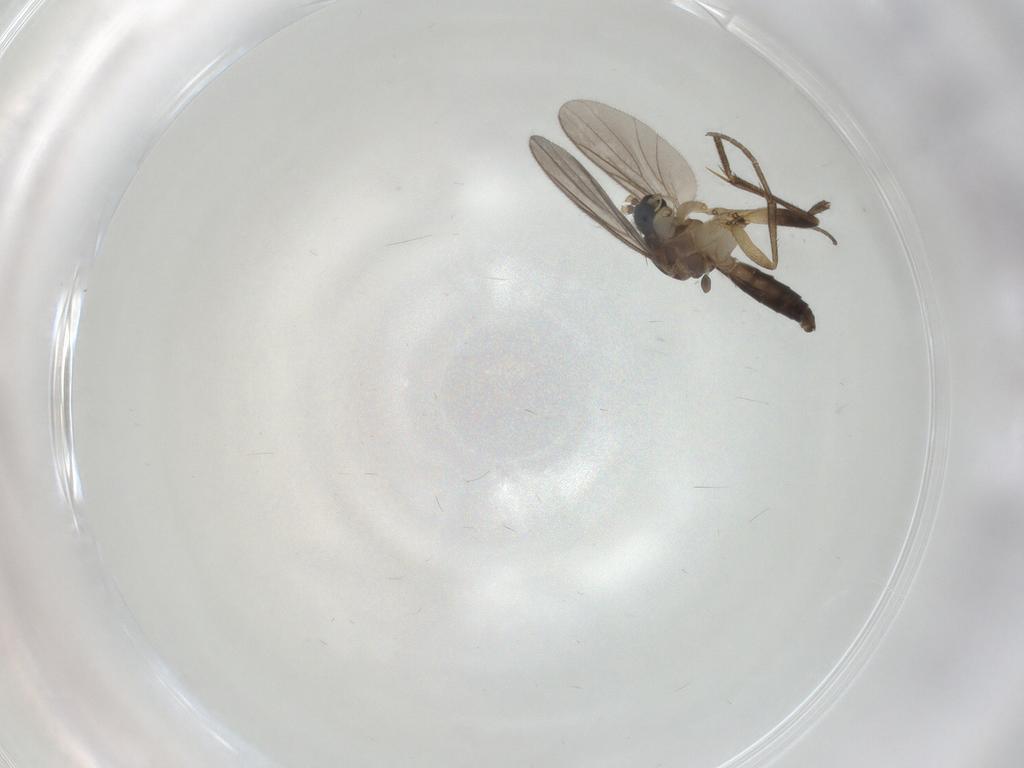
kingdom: Animalia
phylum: Arthropoda
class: Insecta
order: Diptera
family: Mycetophilidae
